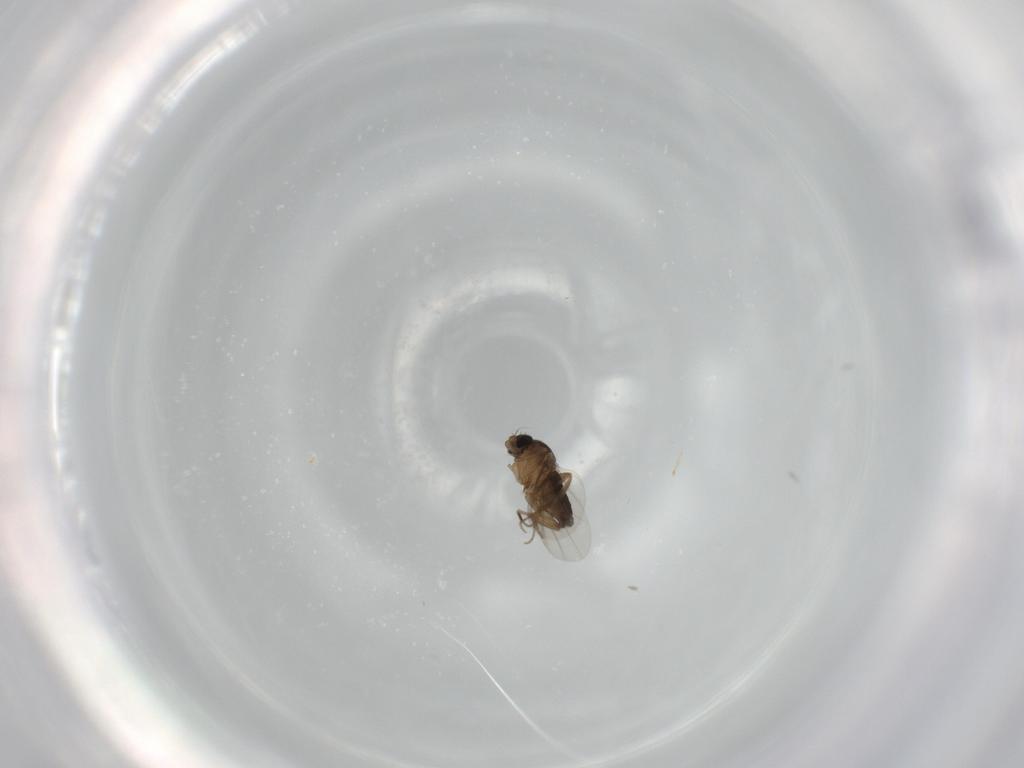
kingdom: Animalia
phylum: Arthropoda
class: Insecta
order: Diptera
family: Phoridae
